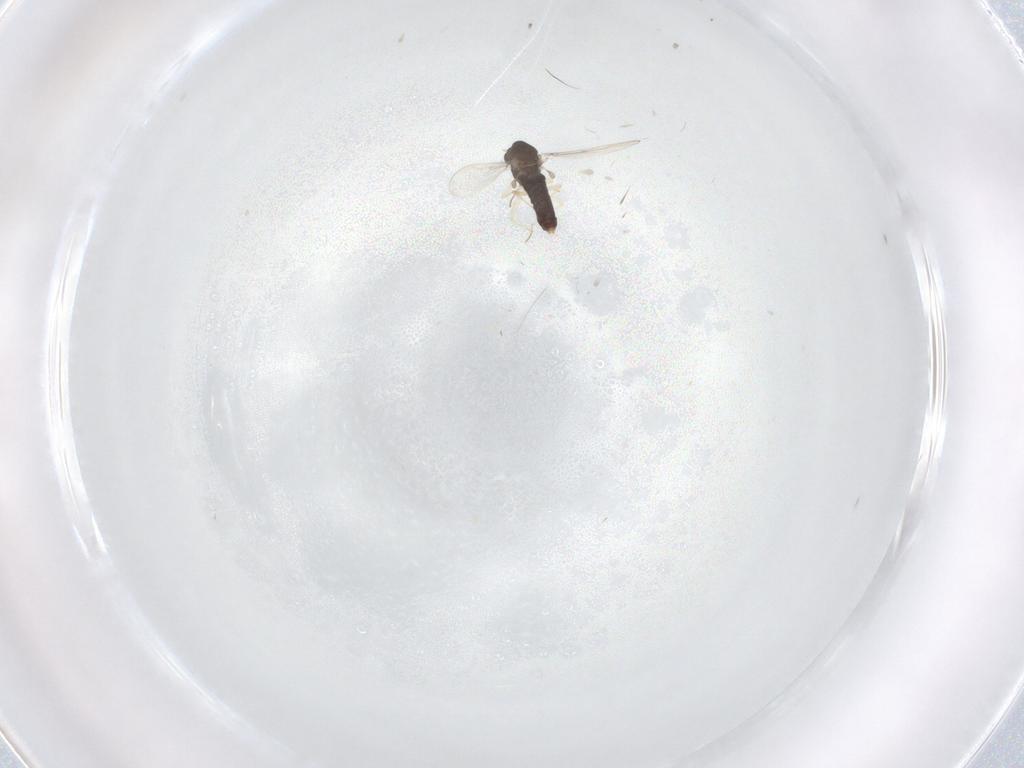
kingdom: Animalia
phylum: Arthropoda
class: Insecta
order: Diptera
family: Chironomidae
